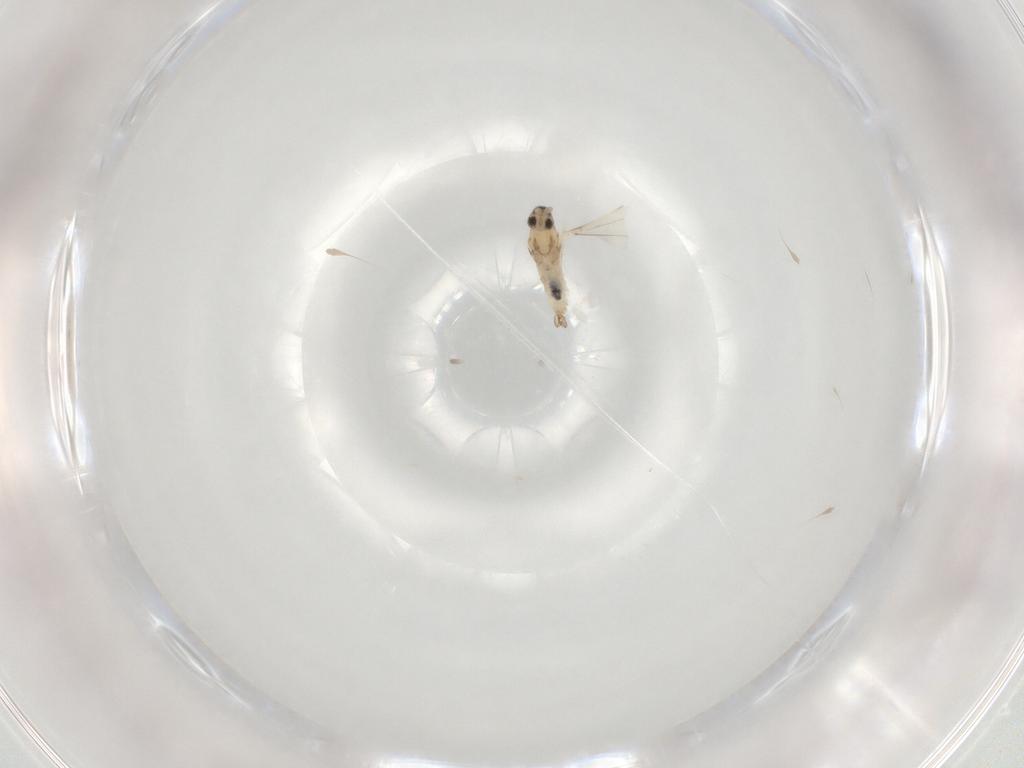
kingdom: Animalia
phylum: Arthropoda
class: Insecta
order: Diptera
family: Cecidomyiidae
